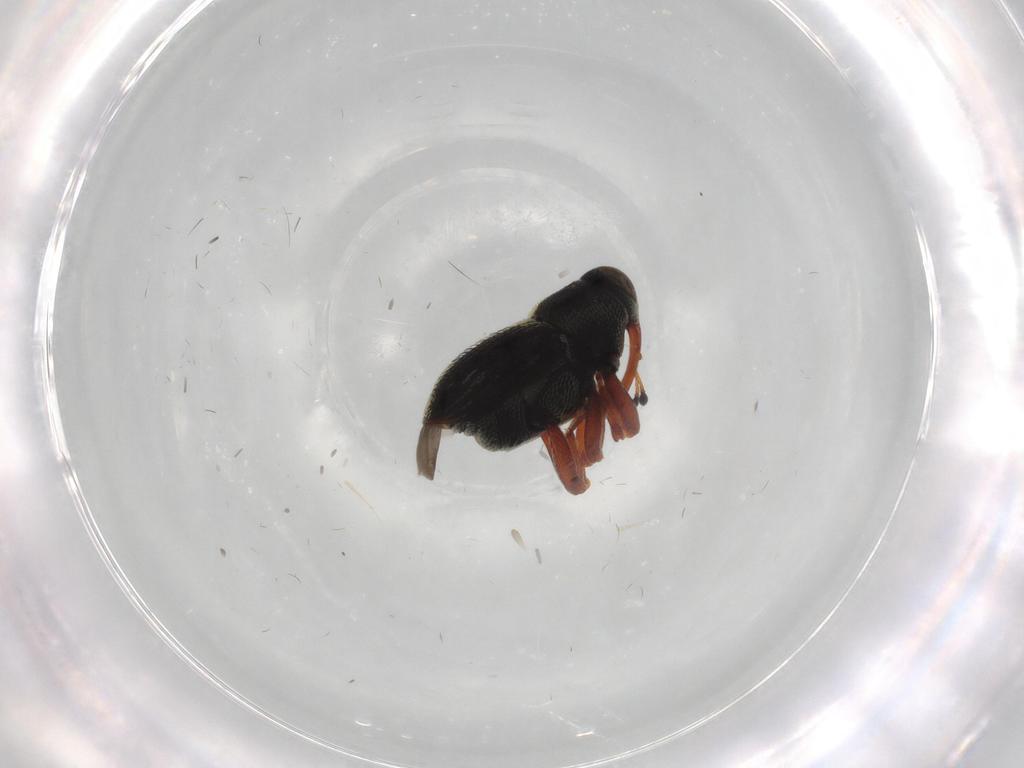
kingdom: Animalia
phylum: Arthropoda
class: Insecta
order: Coleoptera
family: Curculionidae
